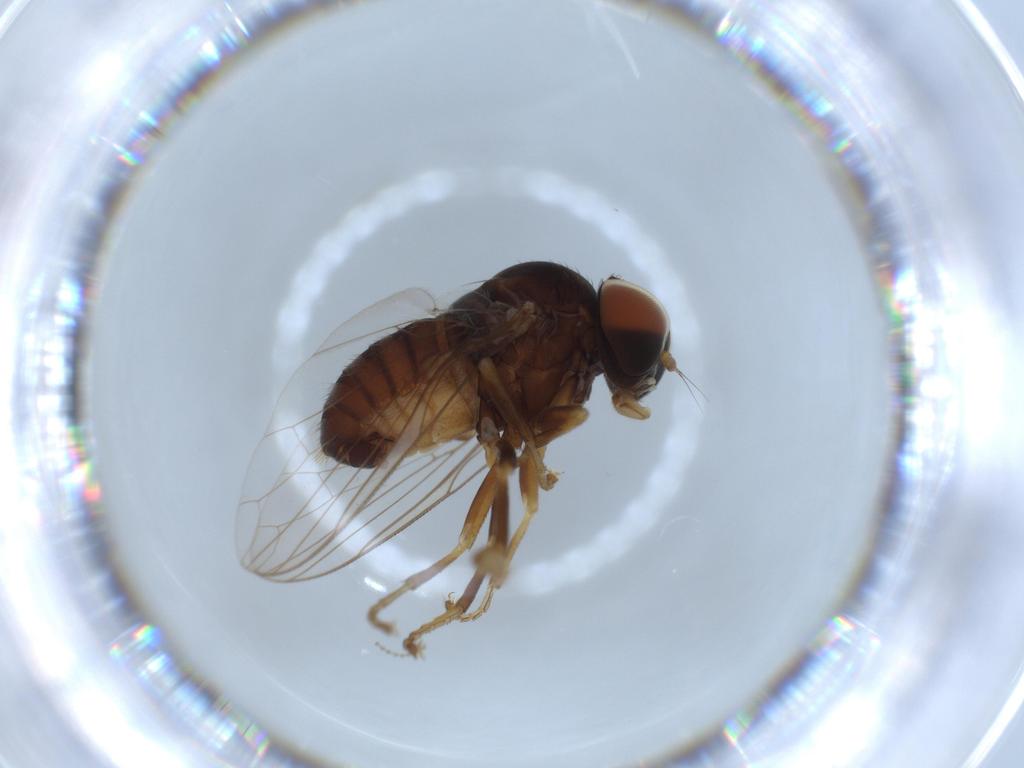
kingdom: Animalia
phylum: Arthropoda
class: Insecta
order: Diptera
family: Platypezidae
